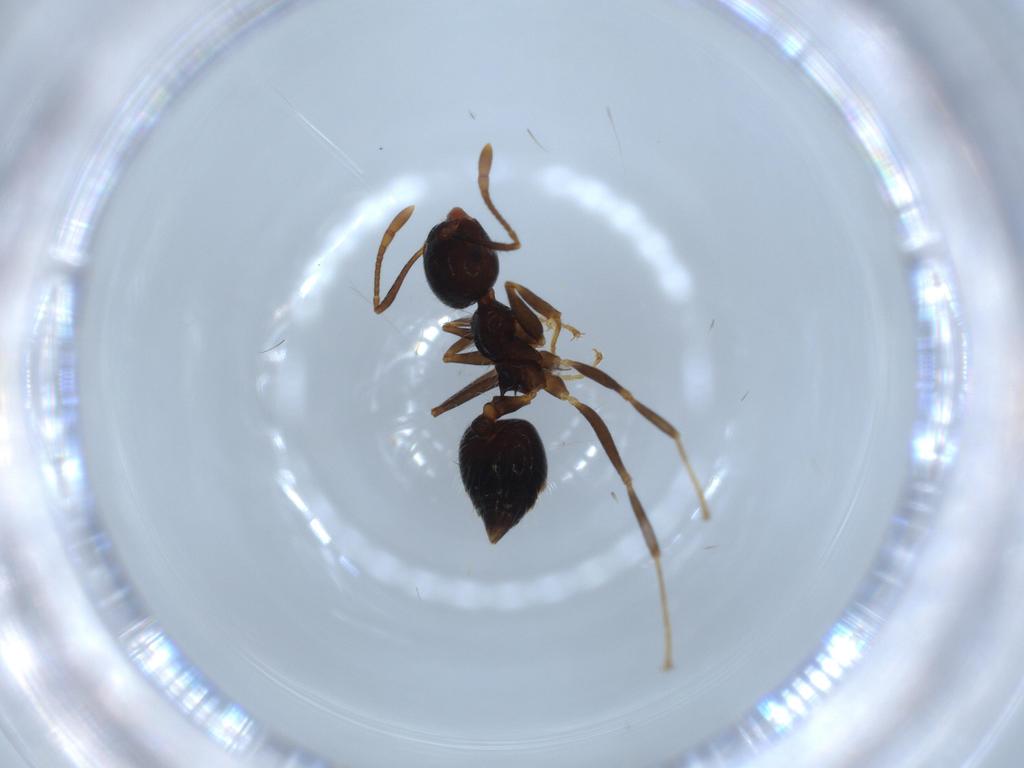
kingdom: Animalia
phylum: Arthropoda
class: Insecta
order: Hymenoptera
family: Formicidae
